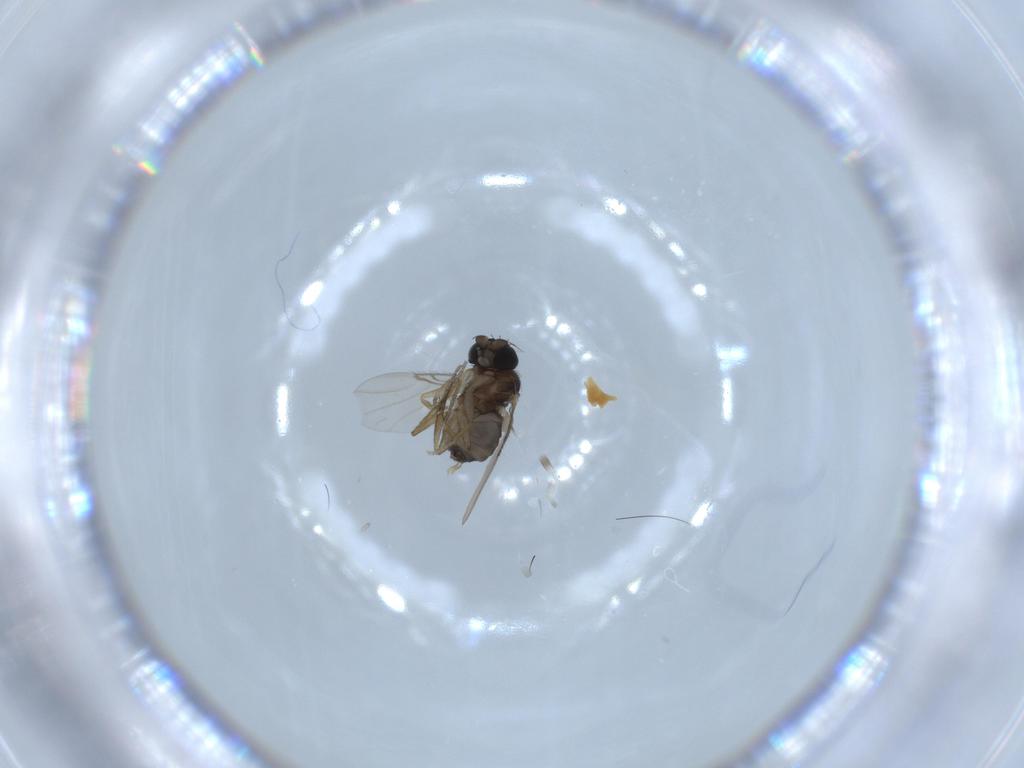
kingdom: Animalia
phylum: Arthropoda
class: Insecta
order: Diptera
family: Phoridae
